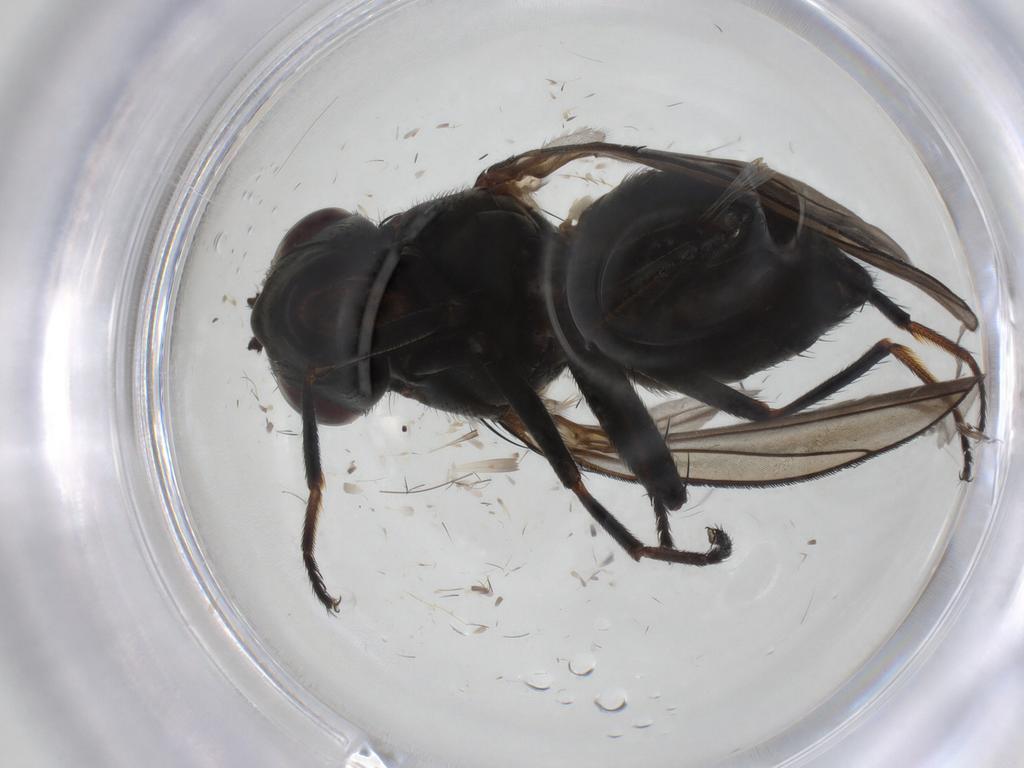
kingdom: Animalia
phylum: Arthropoda
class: Insecta
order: Diptera
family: Ephydridae
